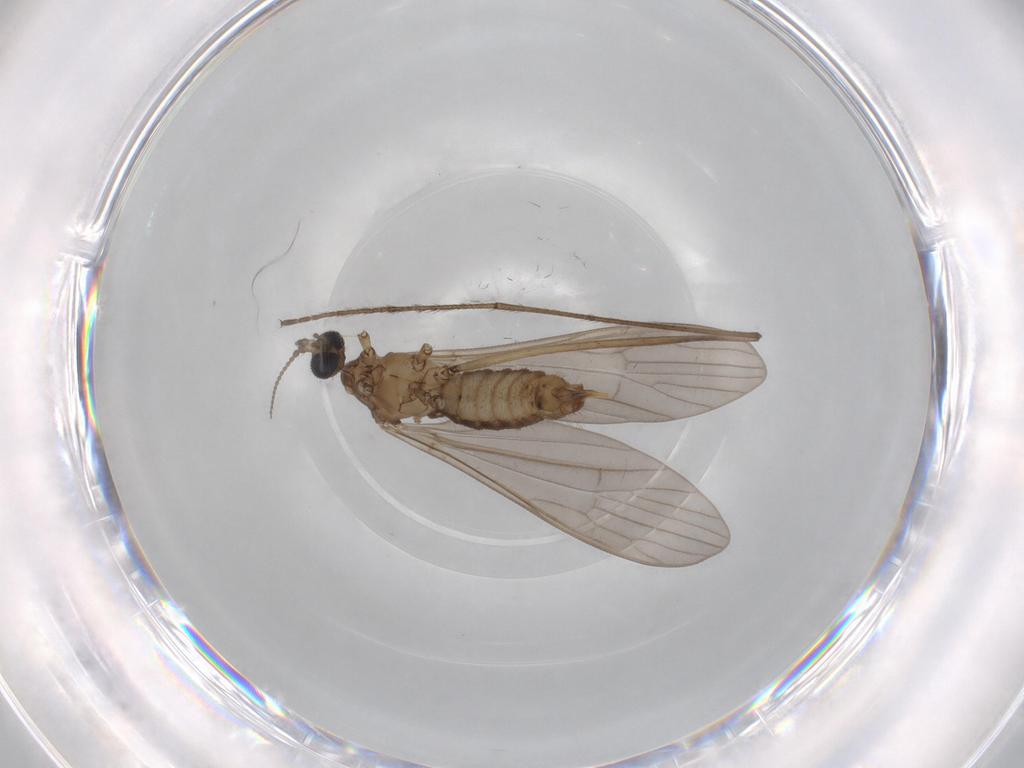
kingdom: Animalia
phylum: Arthropoda
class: Insecta
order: Diptera
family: Limoniidae
